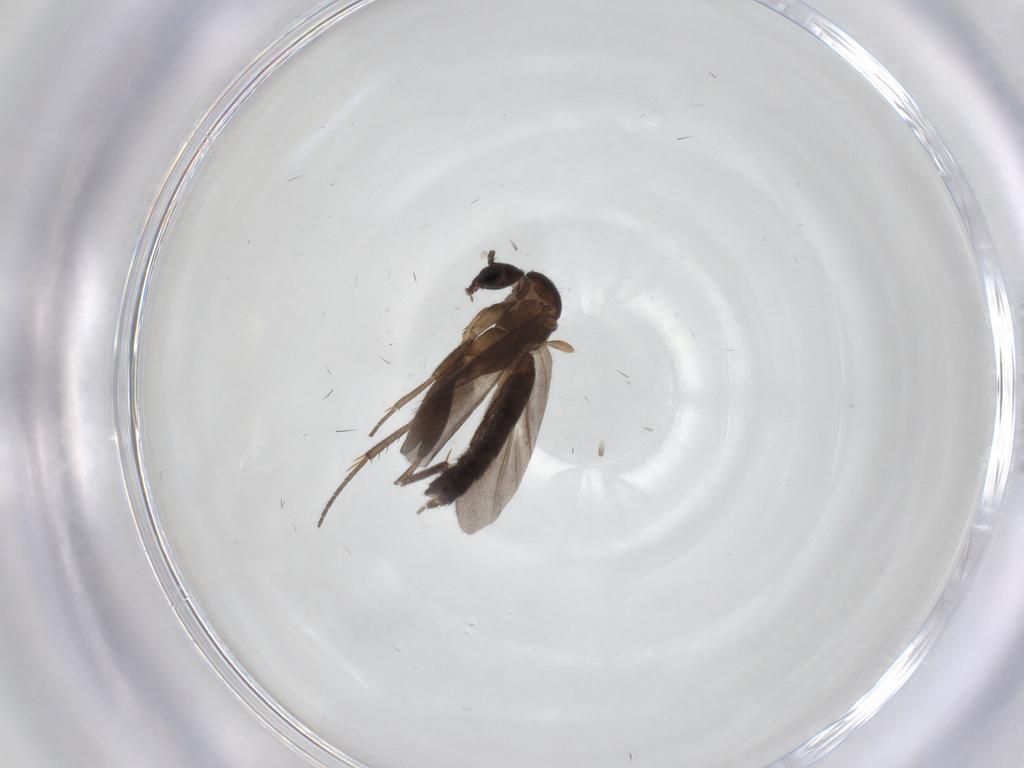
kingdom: Animalia
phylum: Arthropoda
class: Insecta
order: Diptera
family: Mycetophilidae
